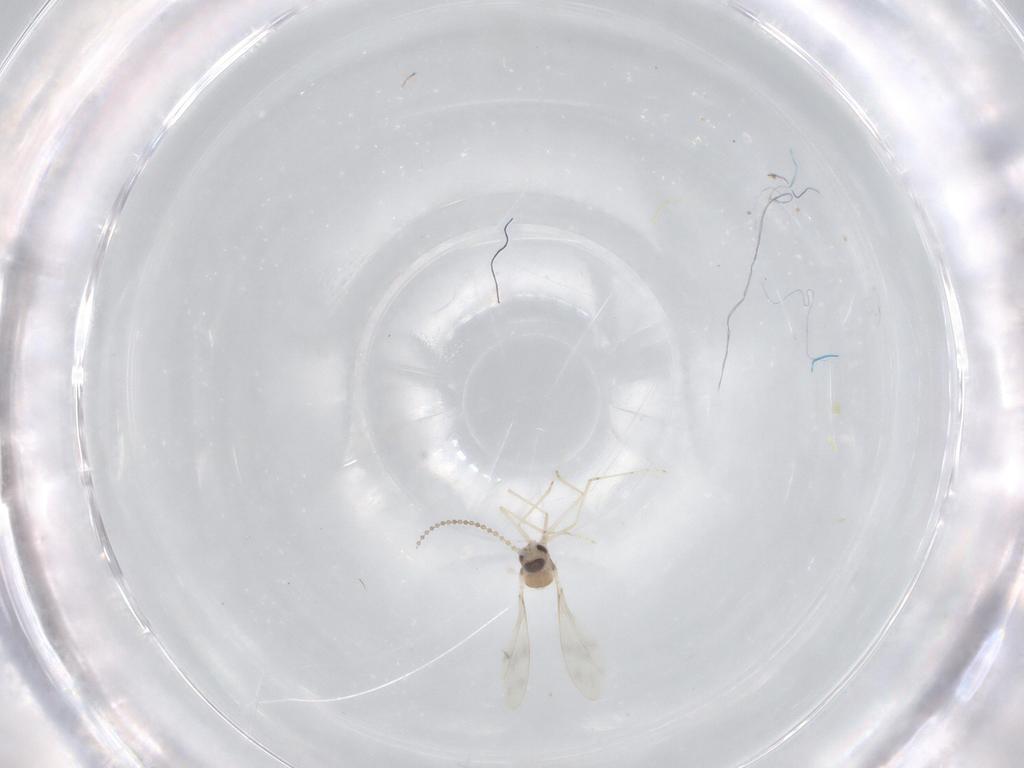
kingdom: Animalia
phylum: Arthropoda
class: Insecta
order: Diptera
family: Cecidomyiidae
